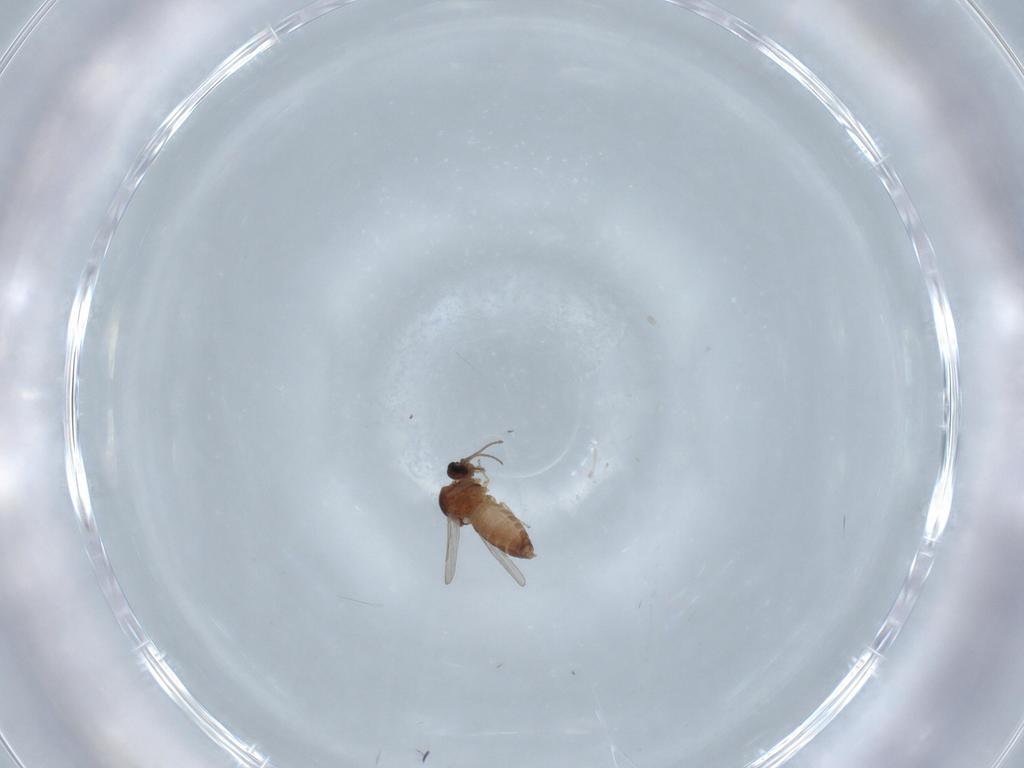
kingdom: Animalia
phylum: Arthropoda
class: Insecta
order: Diptera
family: Ceratopogonidae
